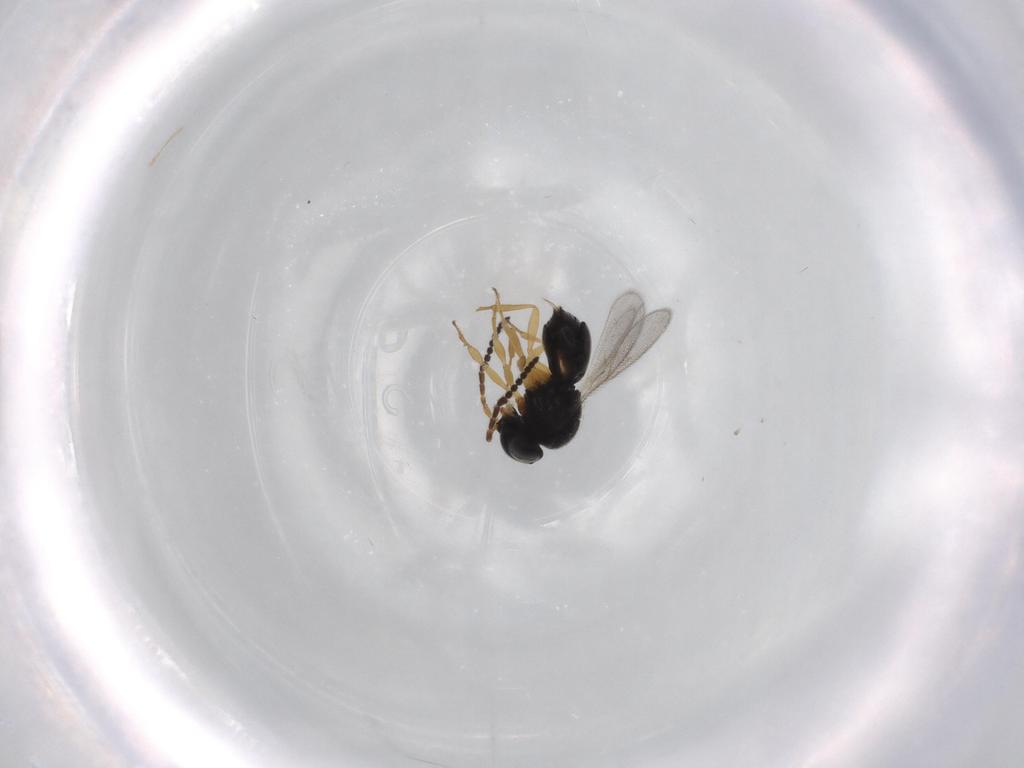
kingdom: Animalia
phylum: Arthropoda
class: Insecta
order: Hymenoptera
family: Scelionidae
